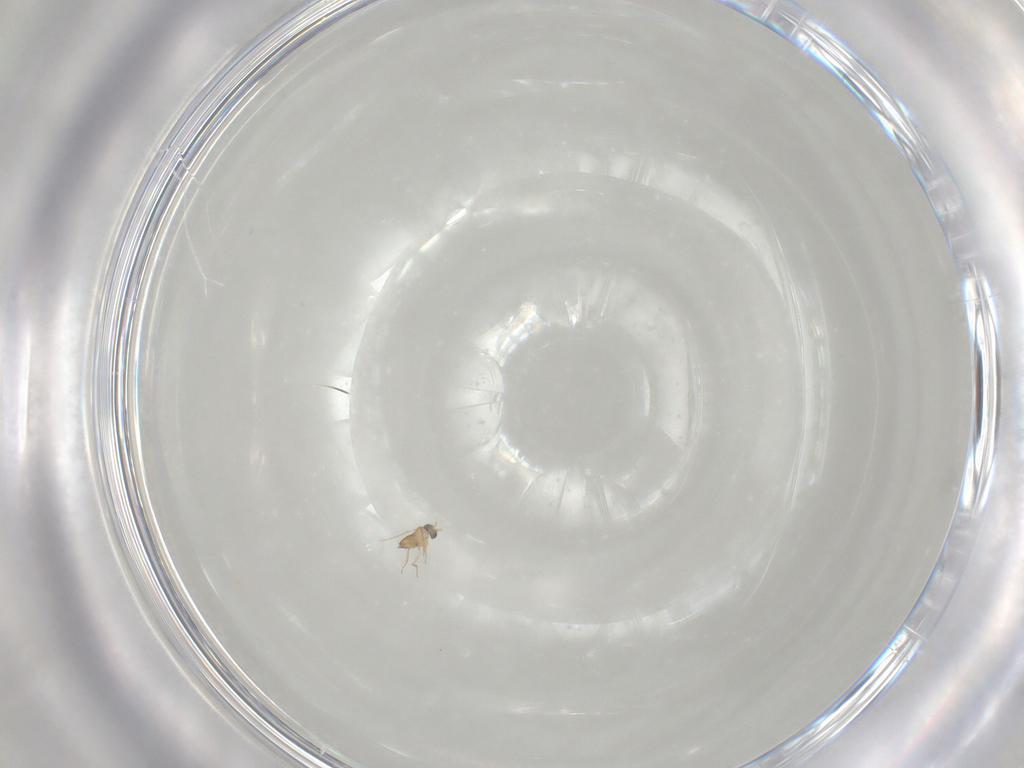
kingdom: Animalia
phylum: Arthropoda
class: Insecta
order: Hymenoptera
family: Mymaridae
